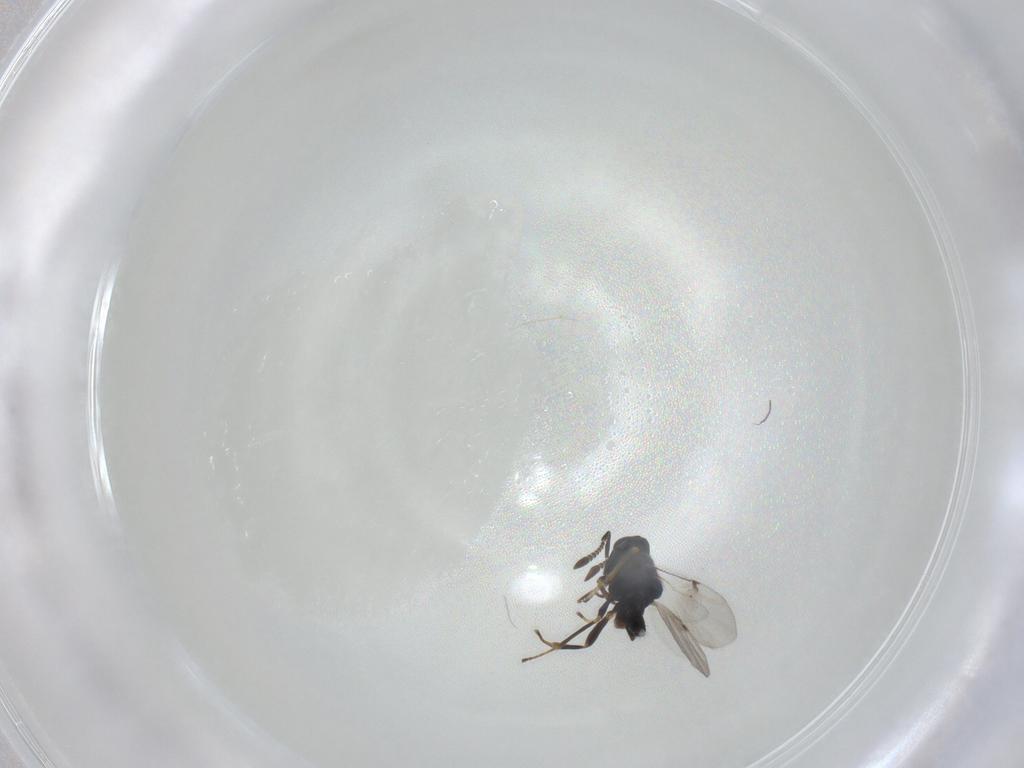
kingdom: Animalia
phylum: Arthropoda
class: Insecta
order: Hymenoptera
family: Encyrtidae
